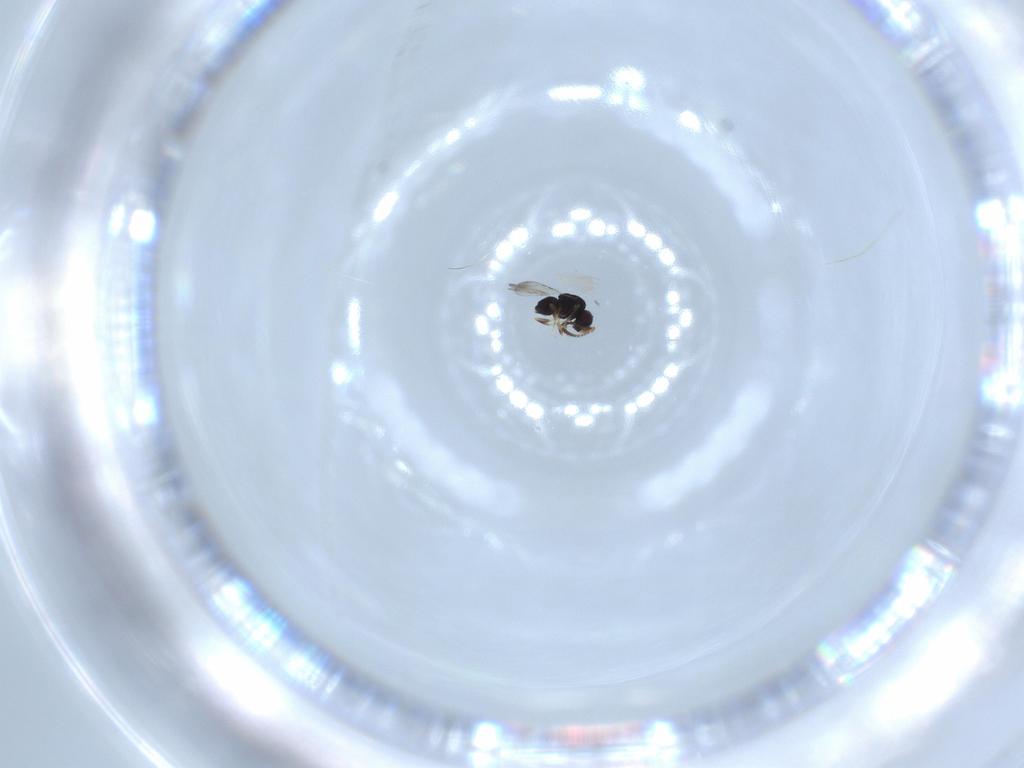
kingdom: Animalia
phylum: Arthropoda
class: Insecta
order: Hymenoptera
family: Bethylidae
